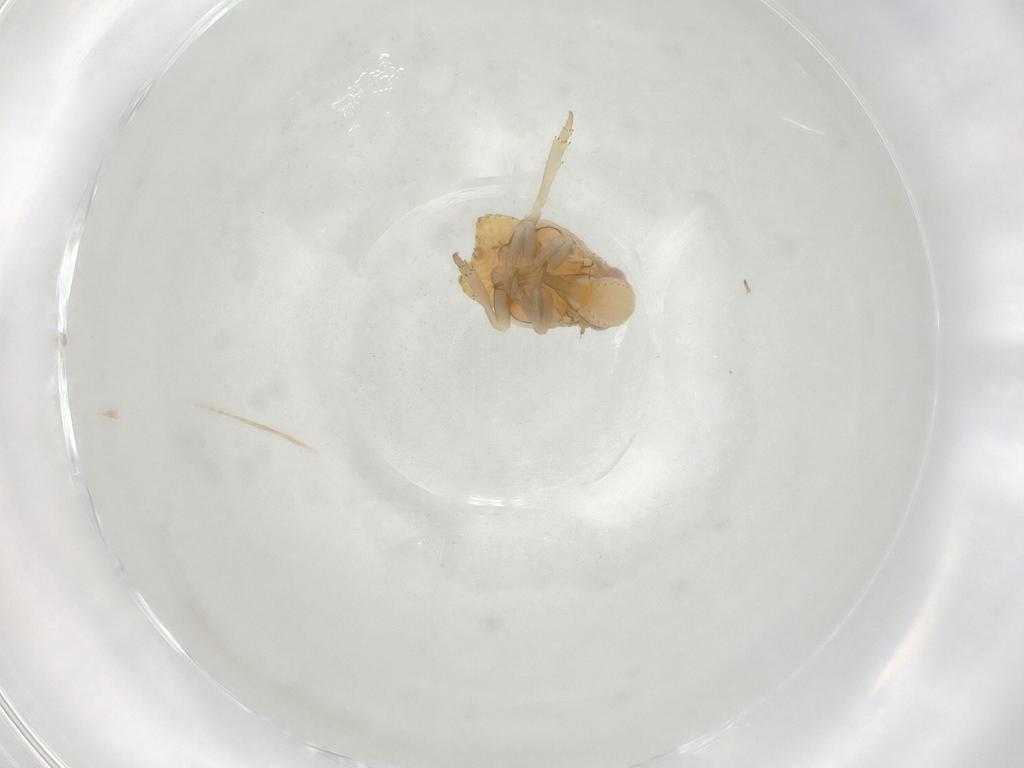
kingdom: Animalia
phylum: Arthropoda
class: Insecta
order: Hemiptera
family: Flatidae
